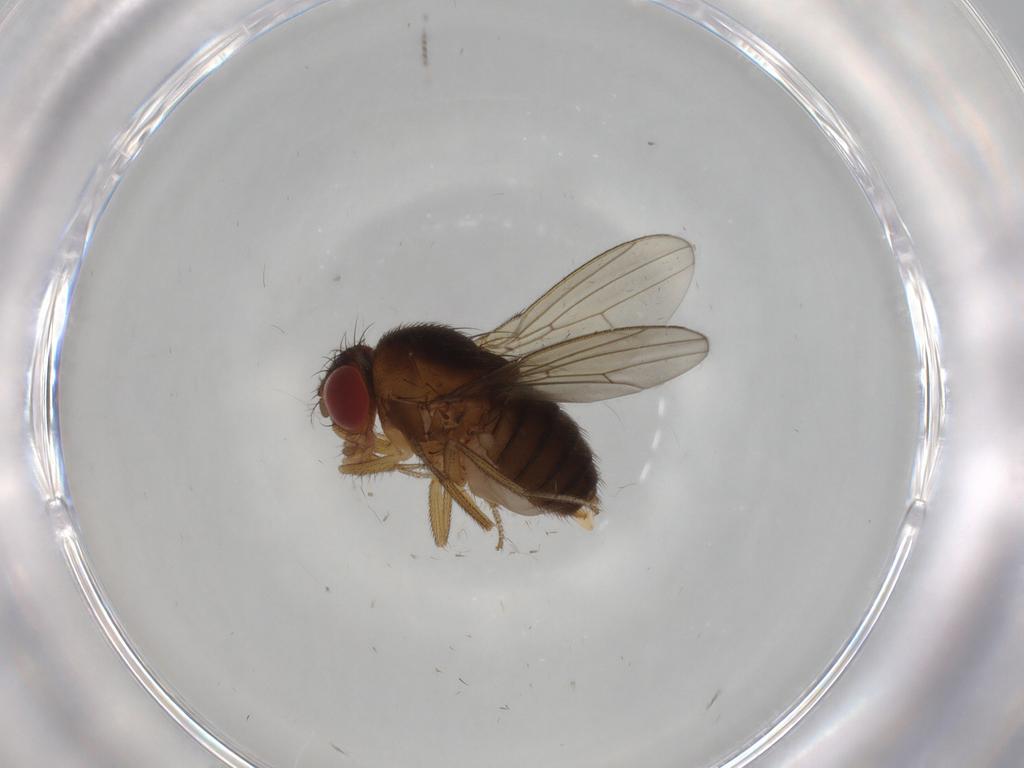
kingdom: Animalia
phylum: Arthropoda
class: Insecta
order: Diptera
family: Drosophilidae
